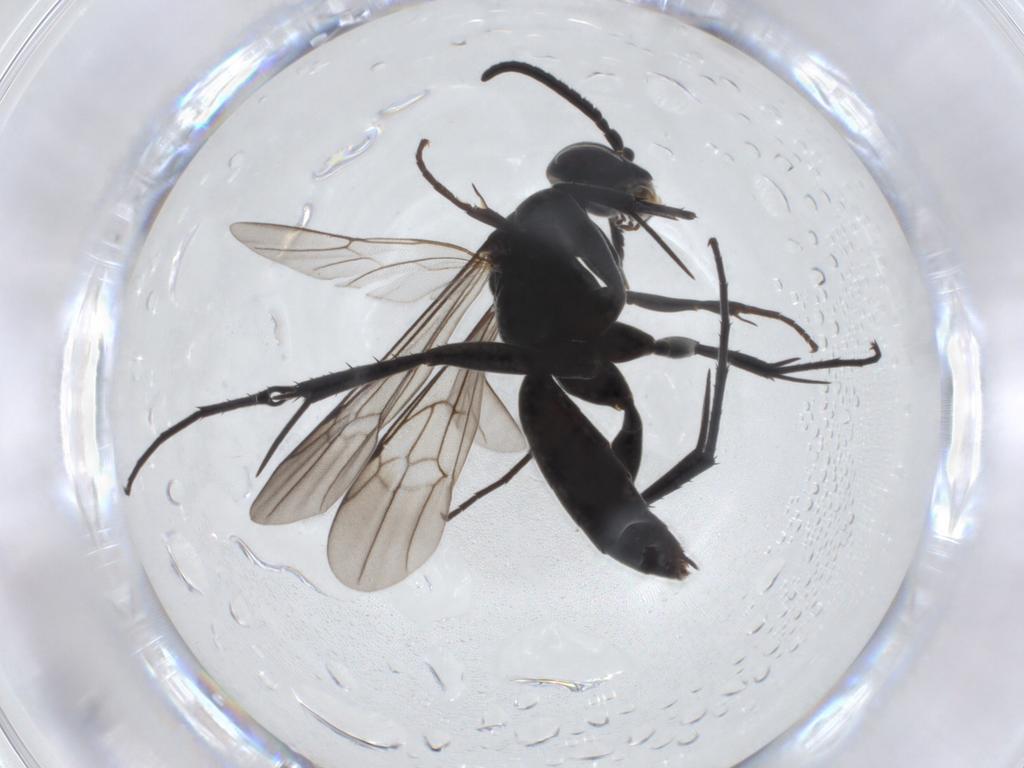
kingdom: Animalia
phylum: Arthropoda
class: Insecta
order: Hymenoptera
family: Pompilidae
